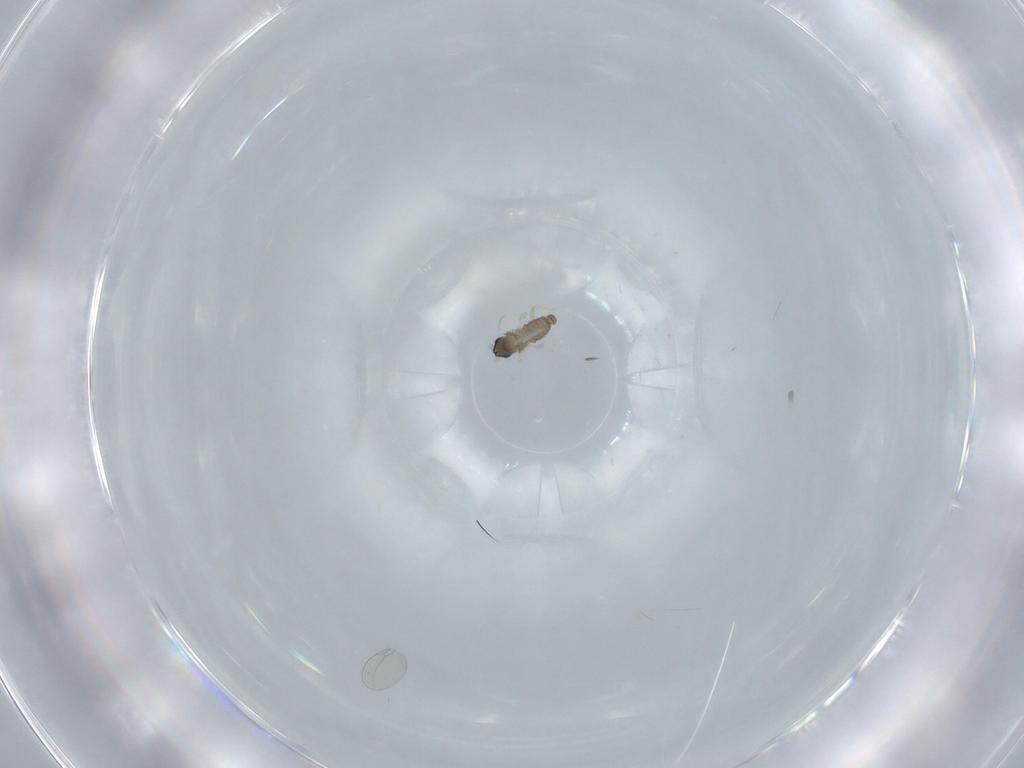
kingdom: Animalia
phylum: Arthropoda
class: Insecta
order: Diptera
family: Cecidomyiidae
